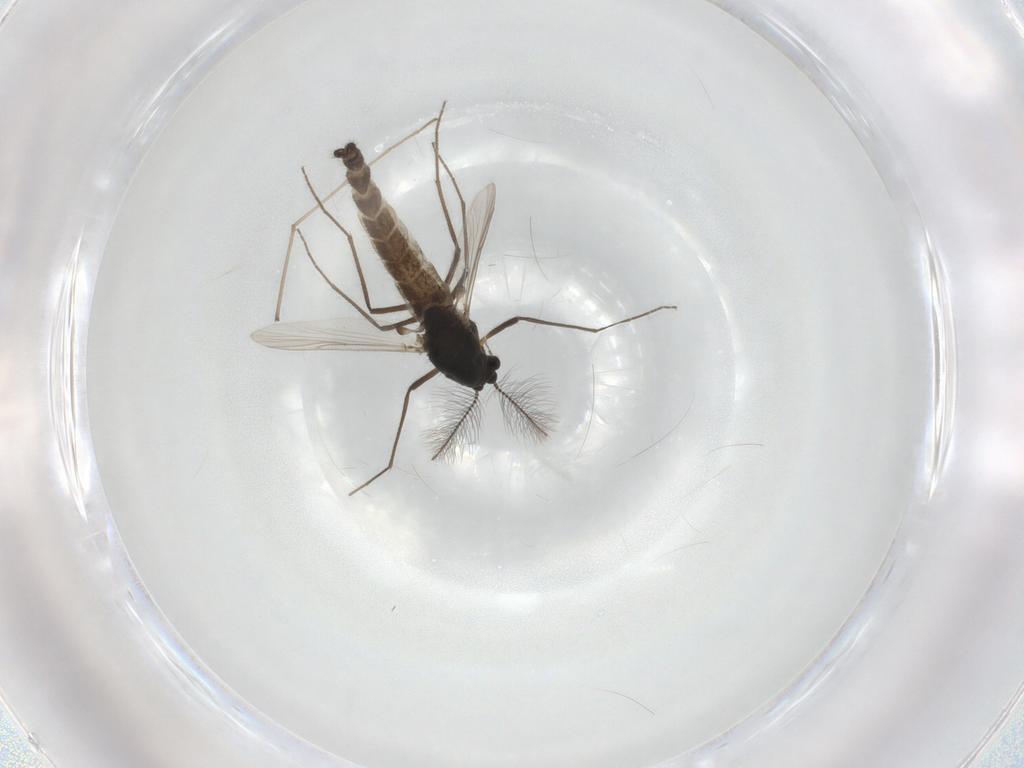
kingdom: Animalia
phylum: Arthropoda
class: Insecta
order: Diptera
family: Chironomidae
